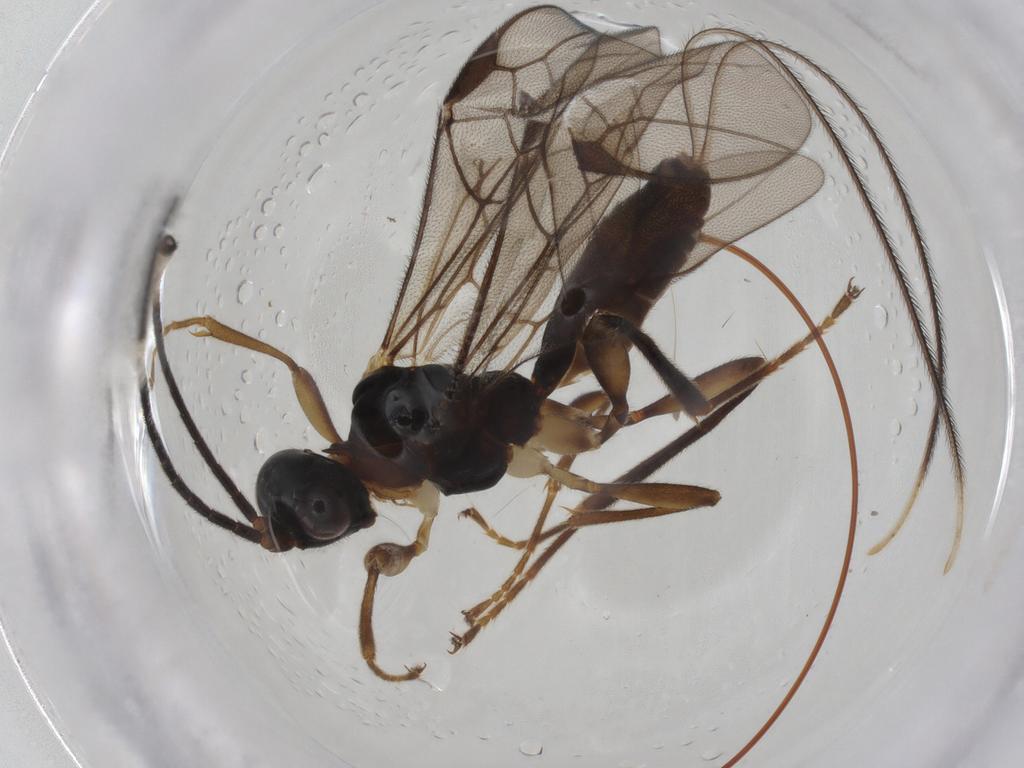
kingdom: Animalia
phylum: Arthropoda
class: Insecta
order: Hymenoptera
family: Braconidae
